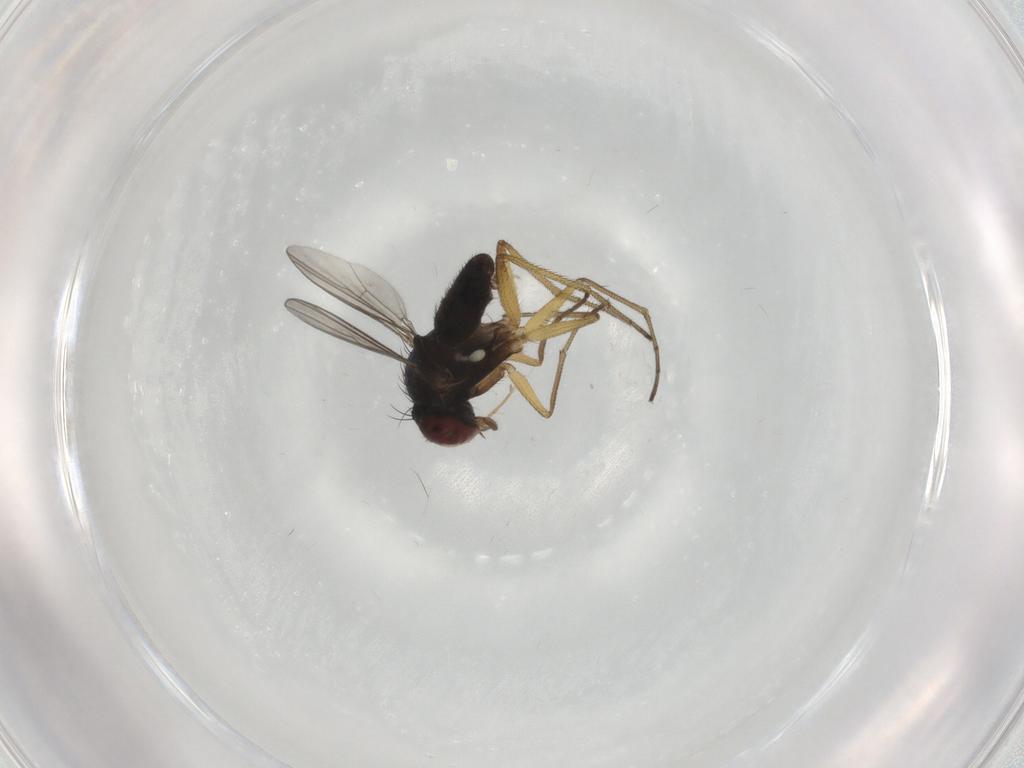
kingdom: Animalia
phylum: Arthropoda
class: Insecta
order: Diptera
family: Dolichopodidae
